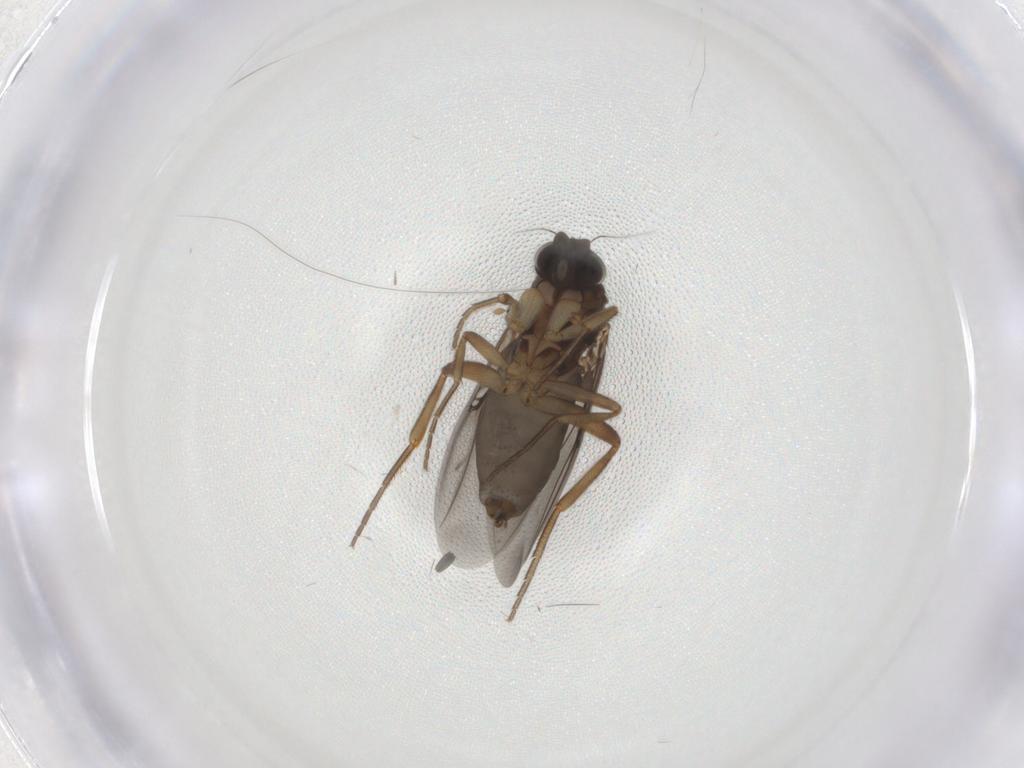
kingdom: Animalia
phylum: Arthropoda
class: Insecta
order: Diptera
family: Phoridae
